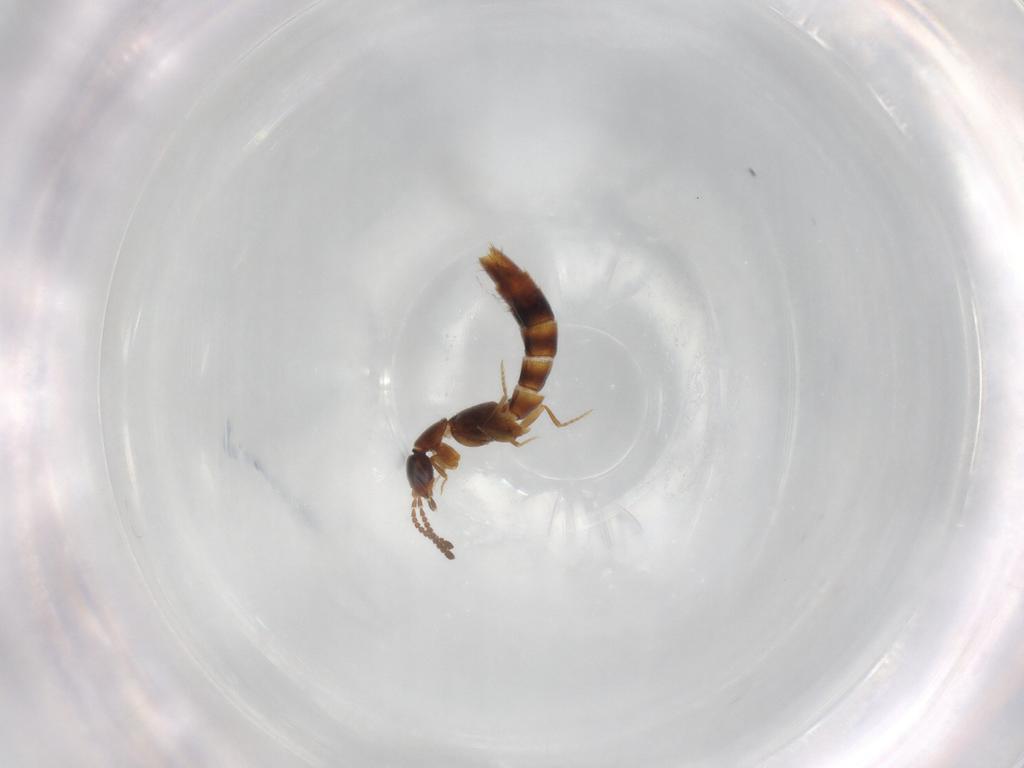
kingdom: Animalia
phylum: Arthropoda
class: Insecta
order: Coleoptera
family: Staphylinidae
